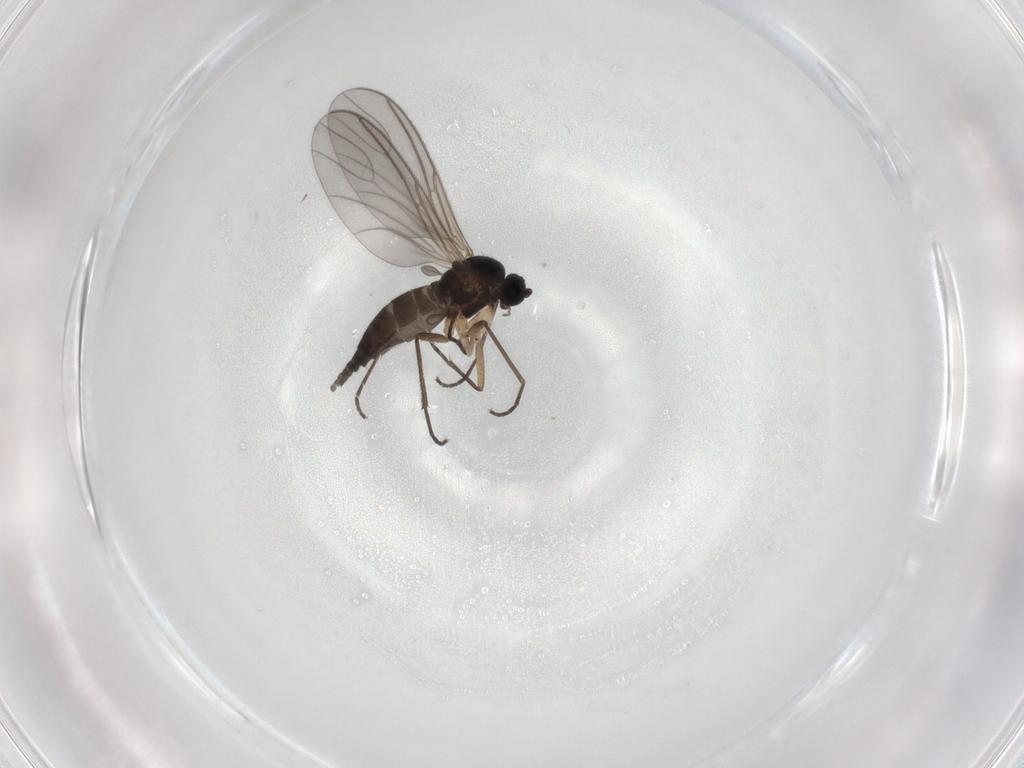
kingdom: Animalia
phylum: Arthropoda
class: Insecta
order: Diptera
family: Sciaridae
